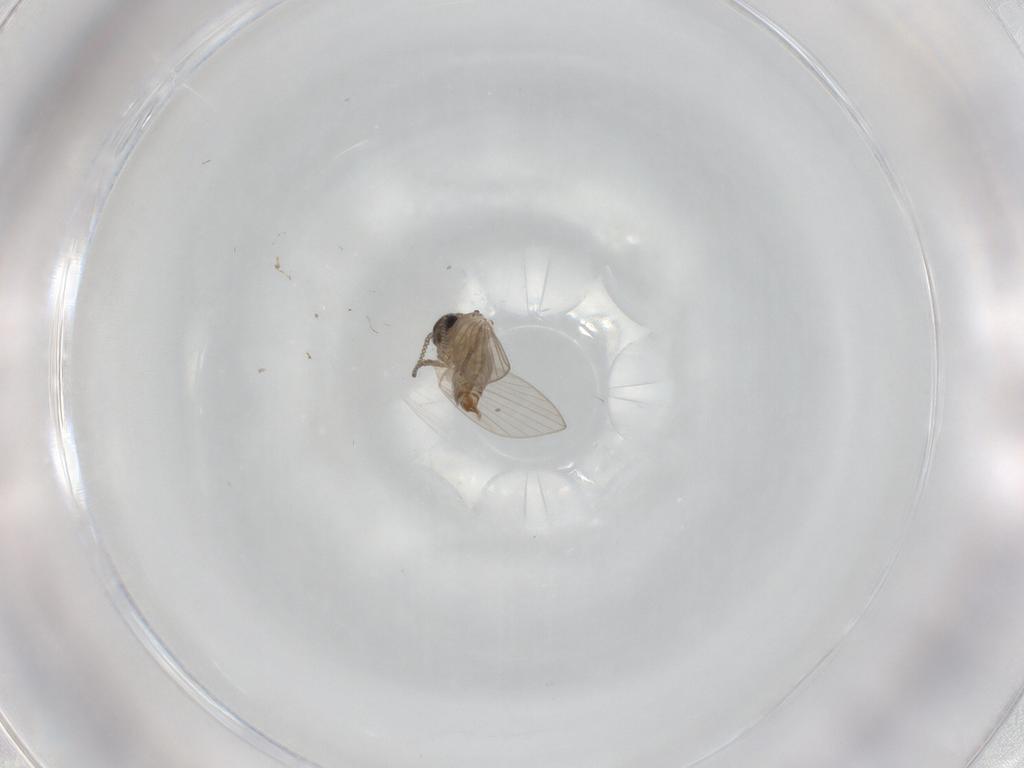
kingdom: Animalia
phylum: Arthropoda
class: Insecta
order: Diptera
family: Psychodidae
